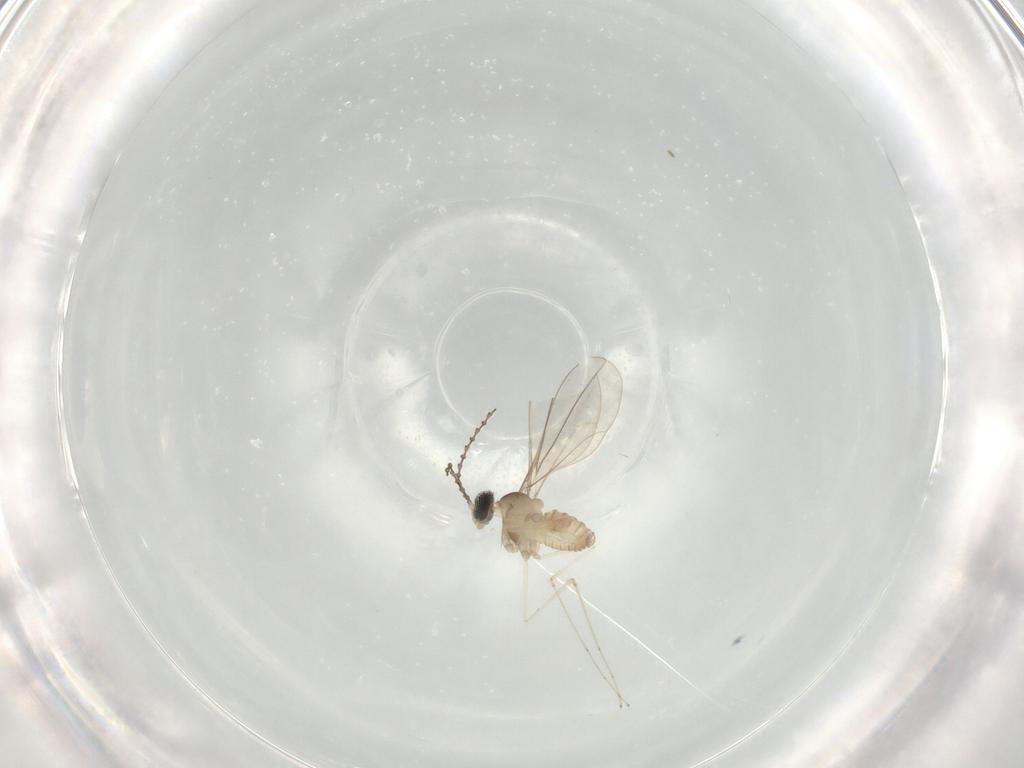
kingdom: Animalia
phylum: Arthropoda
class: Insecta
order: Diptera
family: Cecidomyiidae
